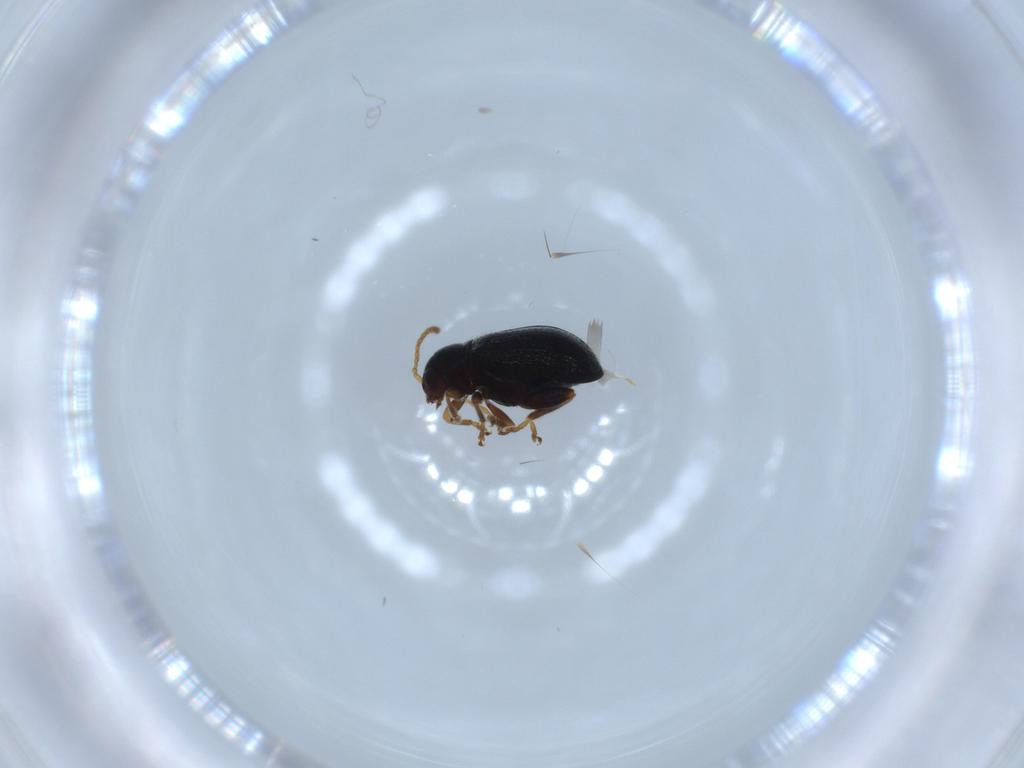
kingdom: Animalia
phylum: Arthropoda
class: Insecta
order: Coleoptera
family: Chrysomelidae
